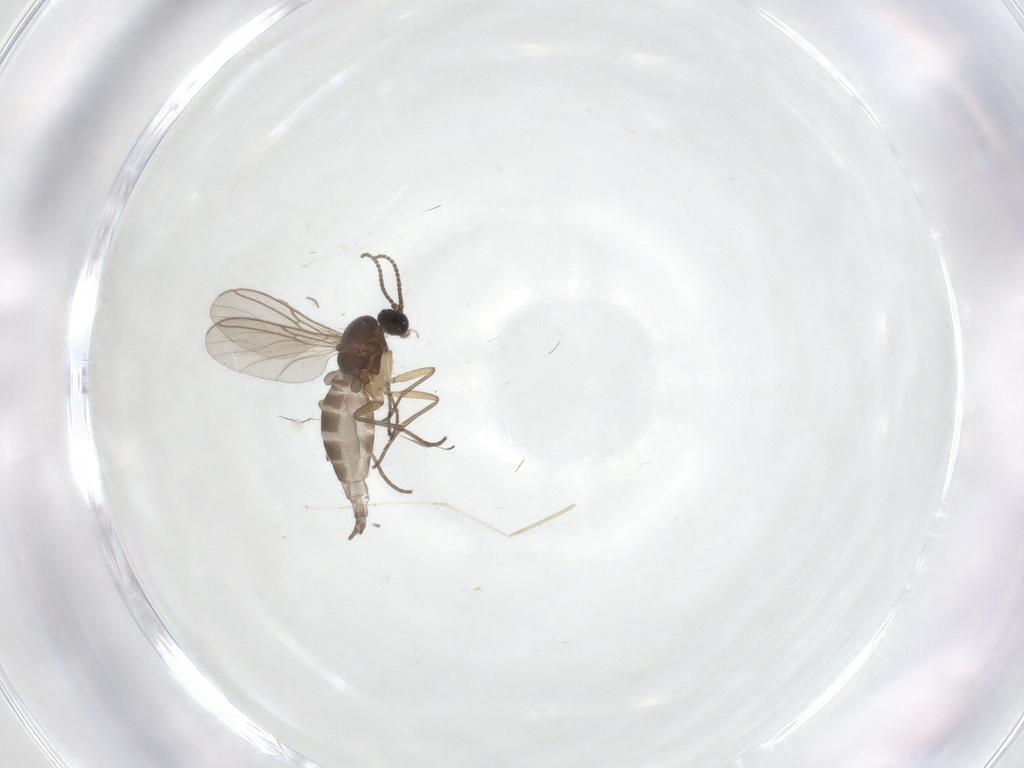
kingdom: Animalia
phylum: Arthropoda
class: Insecta
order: Diptera
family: Sciaridae
